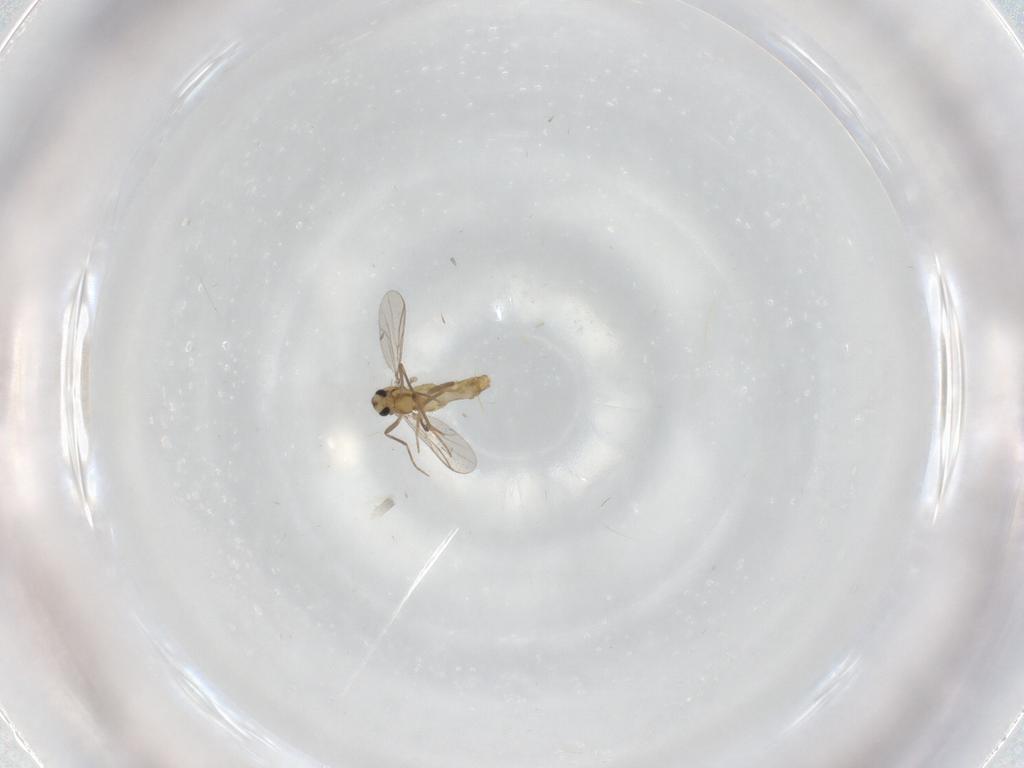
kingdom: Animalia
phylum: Arthropoda
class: Insecta
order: Diptera
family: Chironomidae
